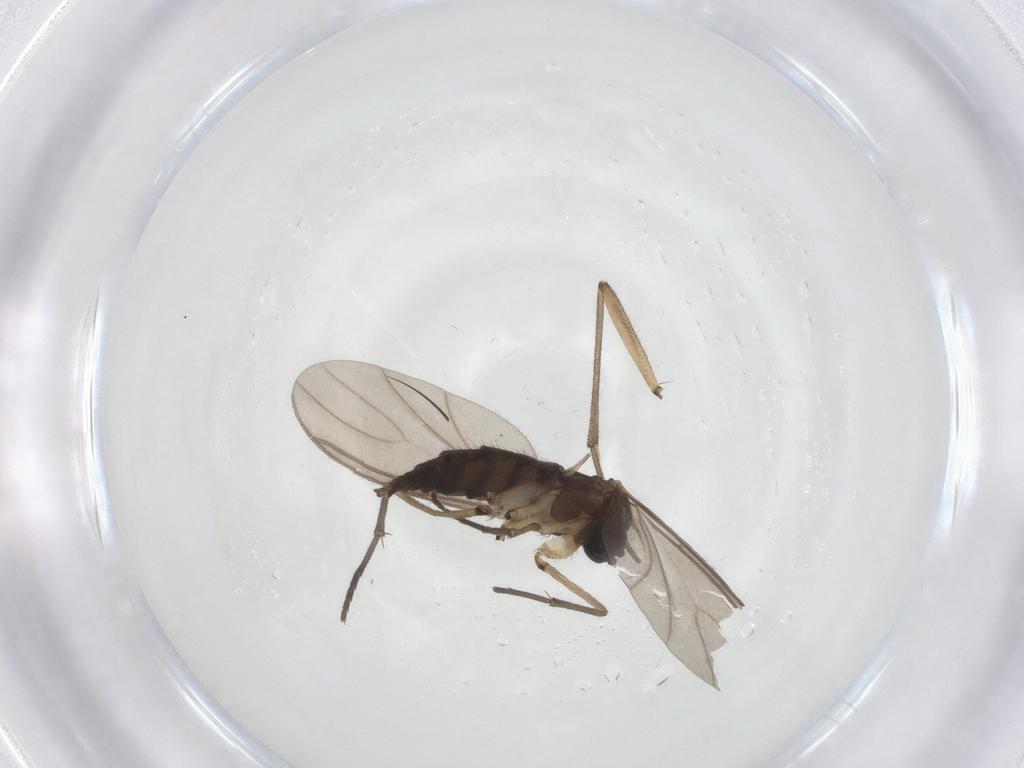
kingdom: Animalia
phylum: Arthropoda
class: Insecta
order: Diptera
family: Sciaridae
